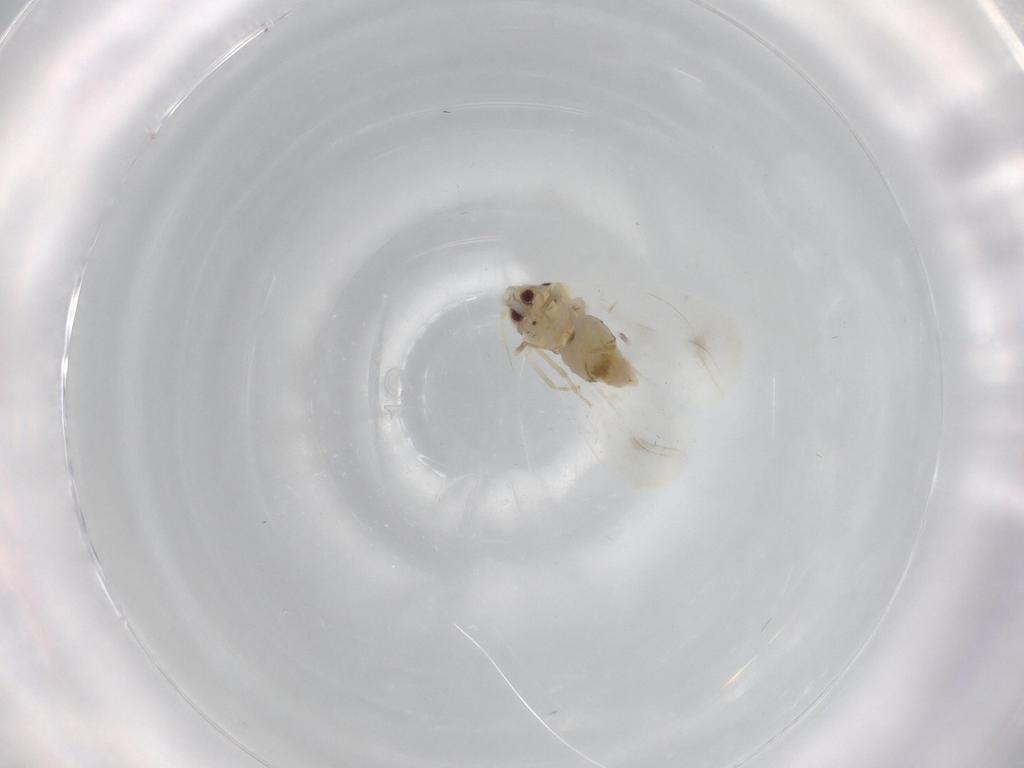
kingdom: Animalia
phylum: Arthropoda
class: Insecta
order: Hemiptera
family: Aleyrodidae
